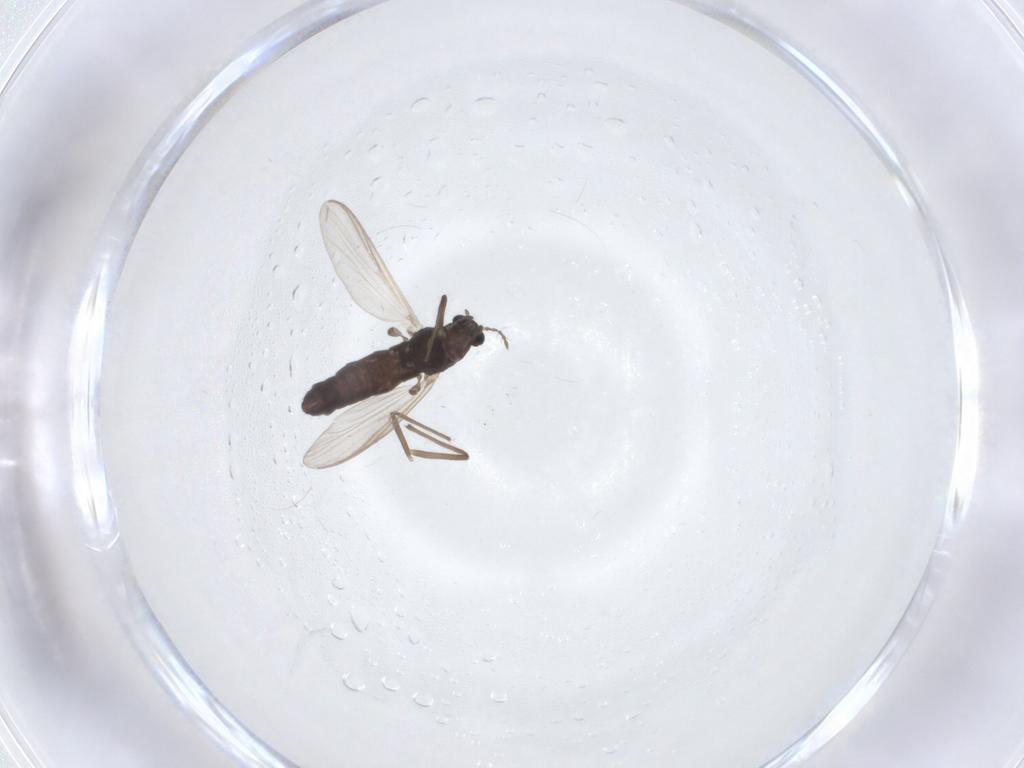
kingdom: Animalia
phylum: Arthropoda
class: Insecta
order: Diptera
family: Chironomidae
